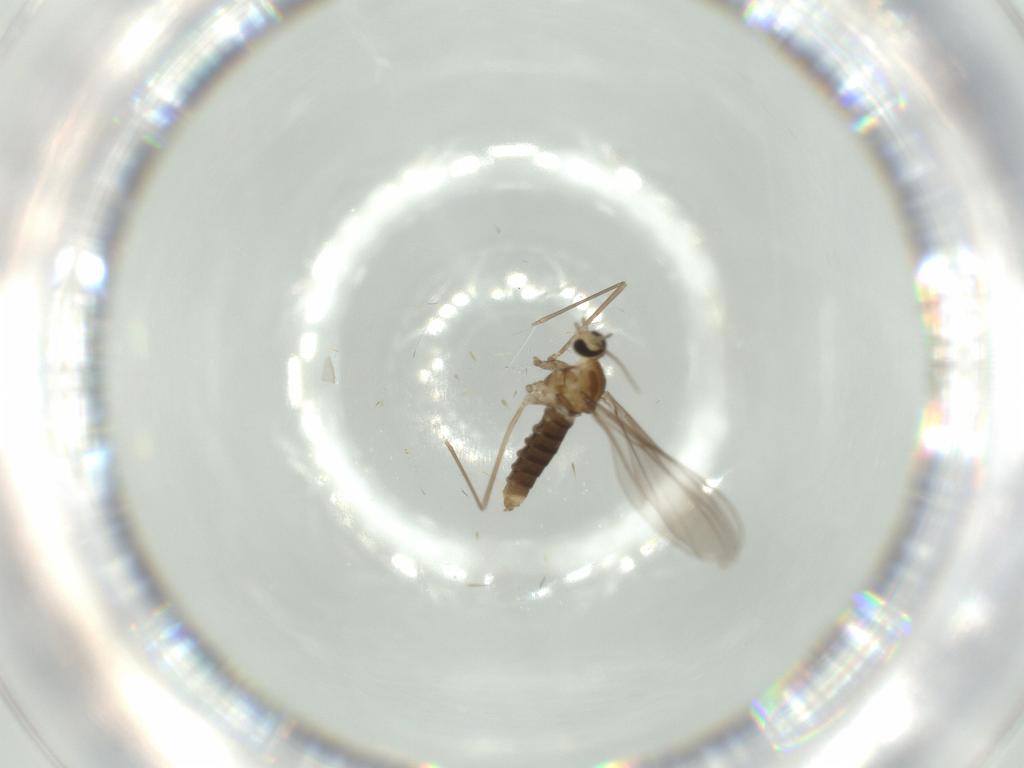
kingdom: Animalia
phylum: Arthropoda
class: Insecta
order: Diptera
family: Cecidomyiidae
